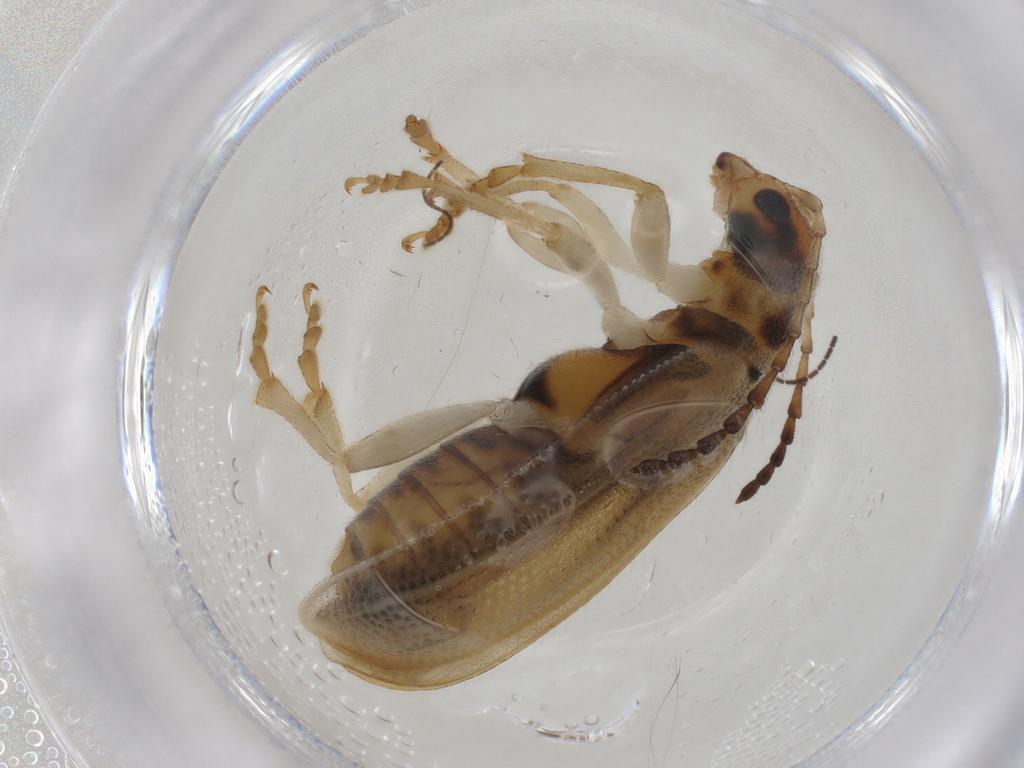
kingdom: Animalia
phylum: Arthropoda
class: Insecta
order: Coleoptera
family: Chrysomelidae
